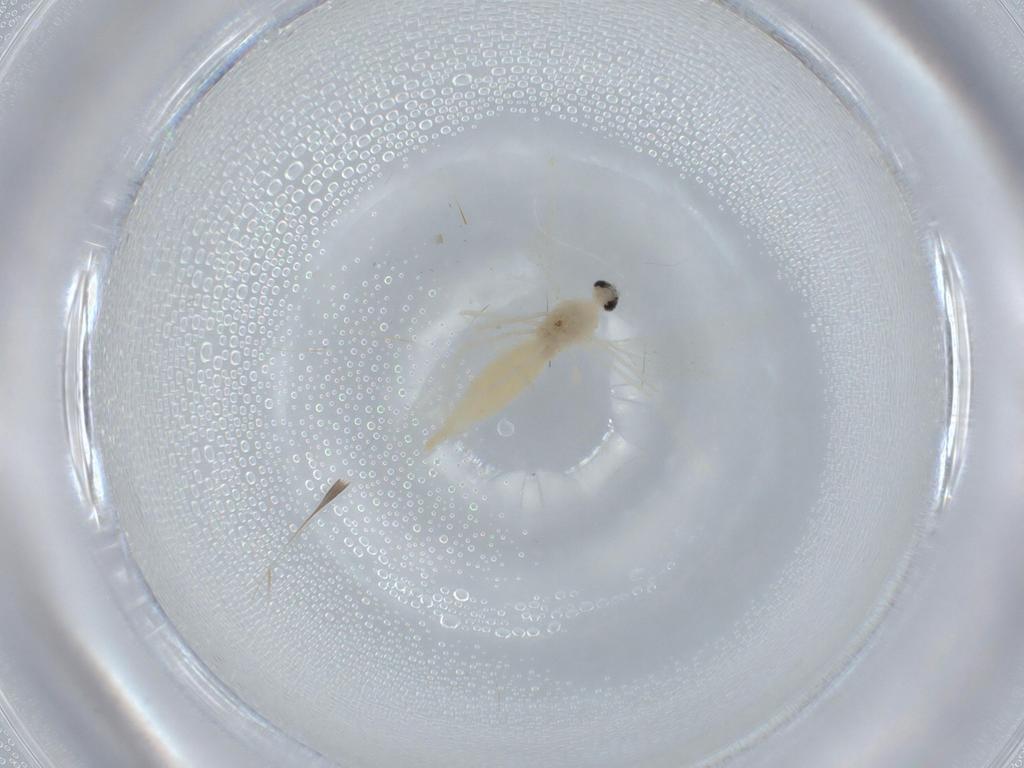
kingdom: Animalia
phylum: Arthropoda
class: Insecta
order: Diptera
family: Cecidomyiidae
